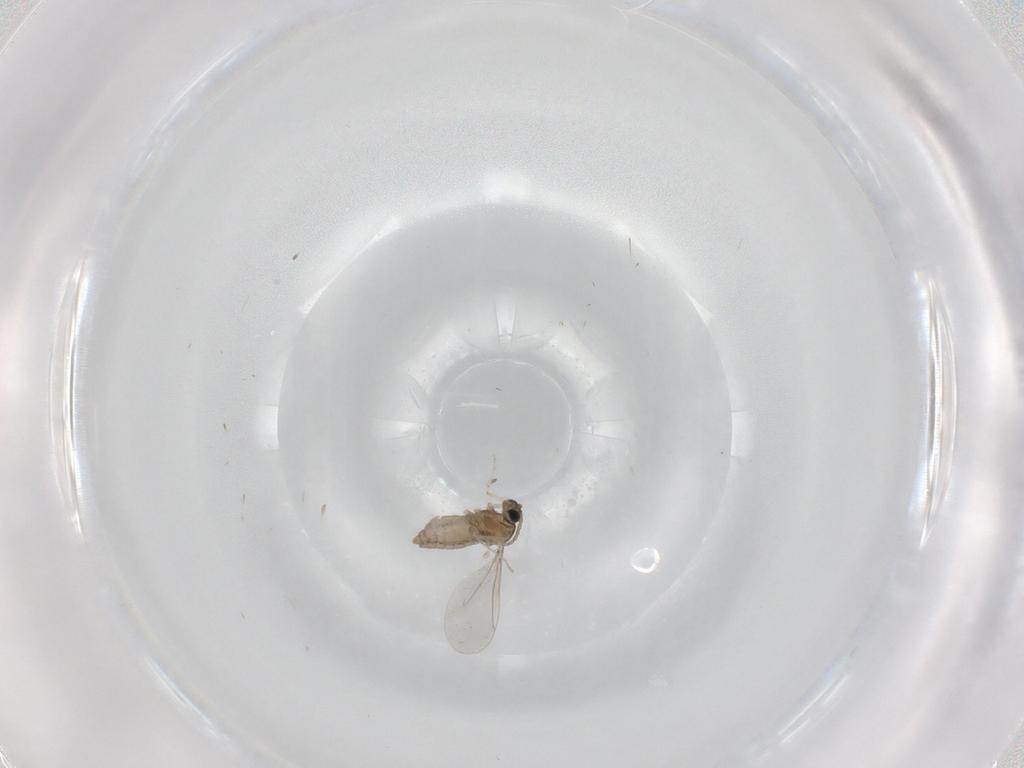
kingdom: Animalia
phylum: Arthropoda
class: Insecta
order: Diptera
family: Cecidomyiidae
